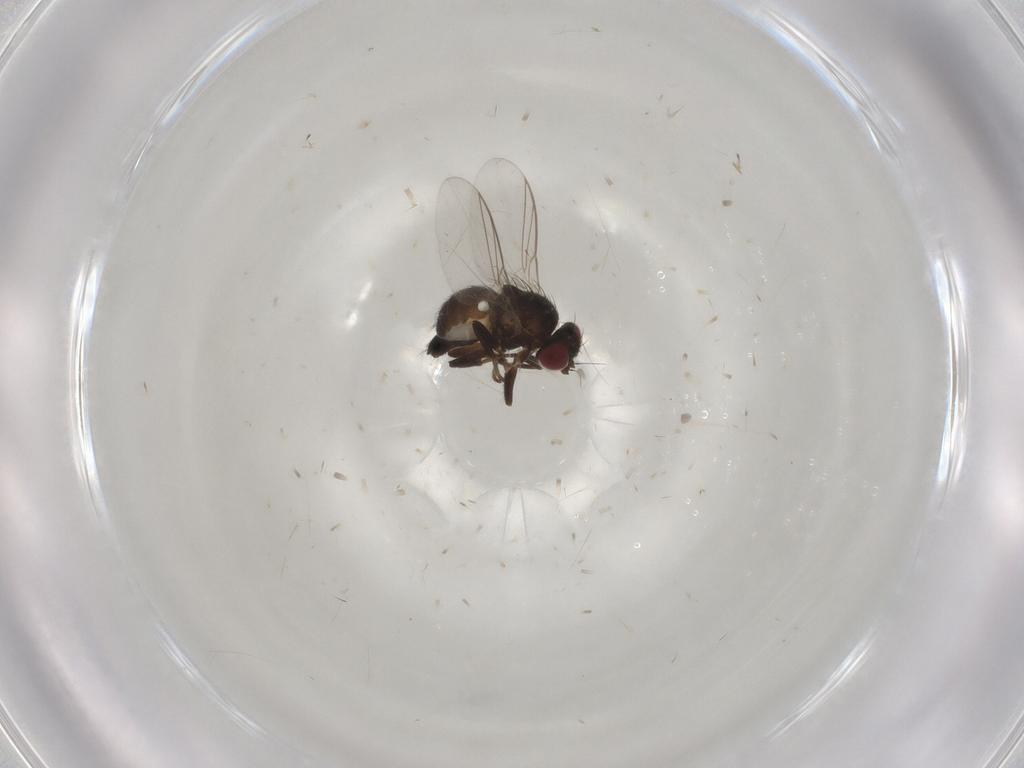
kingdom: Animalia
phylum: Arthropoda
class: Insecta
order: Diptera
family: Agromyzidae
